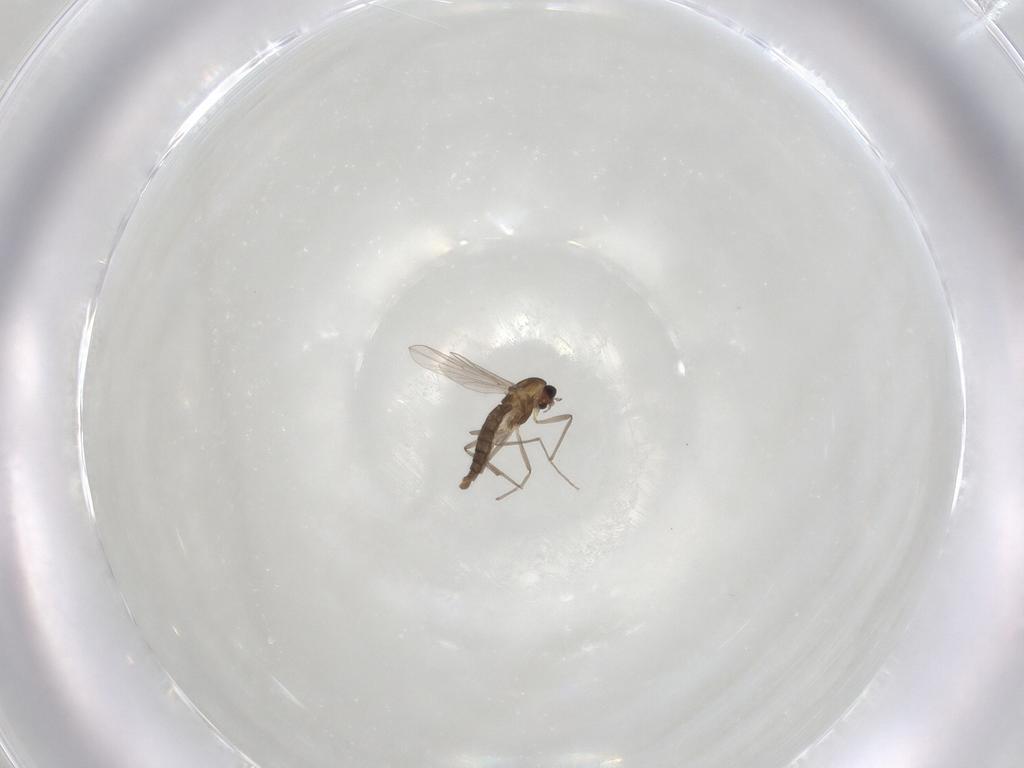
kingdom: Animalia
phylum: Arthropoda
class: Insecta
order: Diptera
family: Chironomidae
